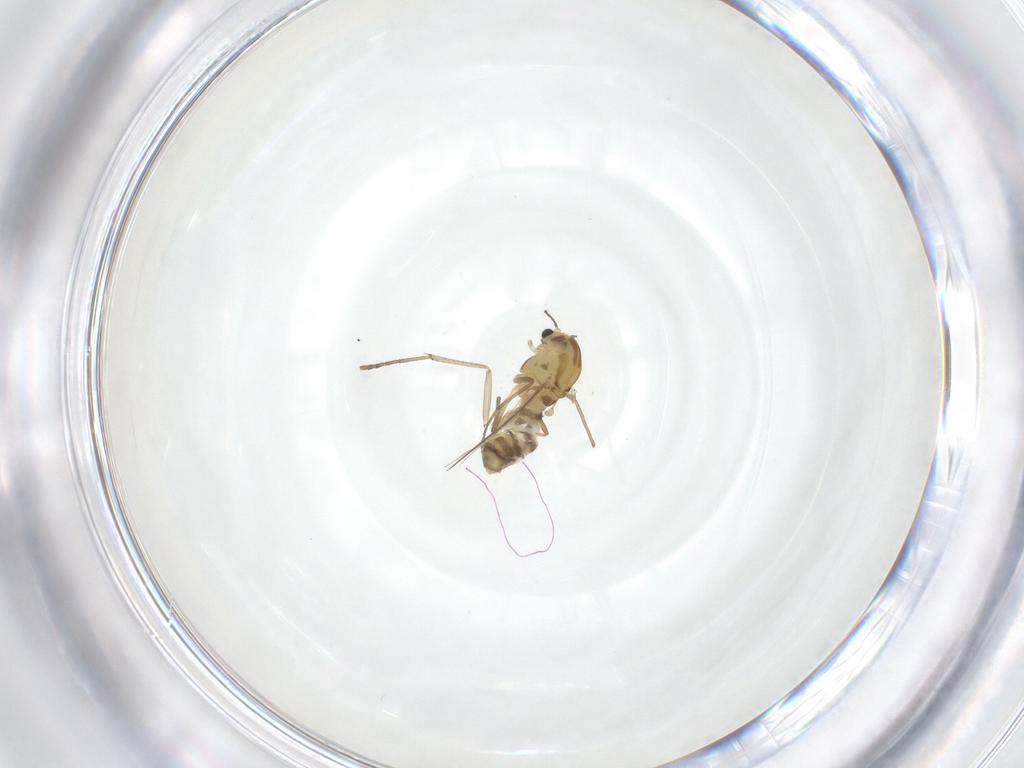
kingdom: Animalia
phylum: Arthropoda
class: Insecta
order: Diptera
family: Chironomidae
